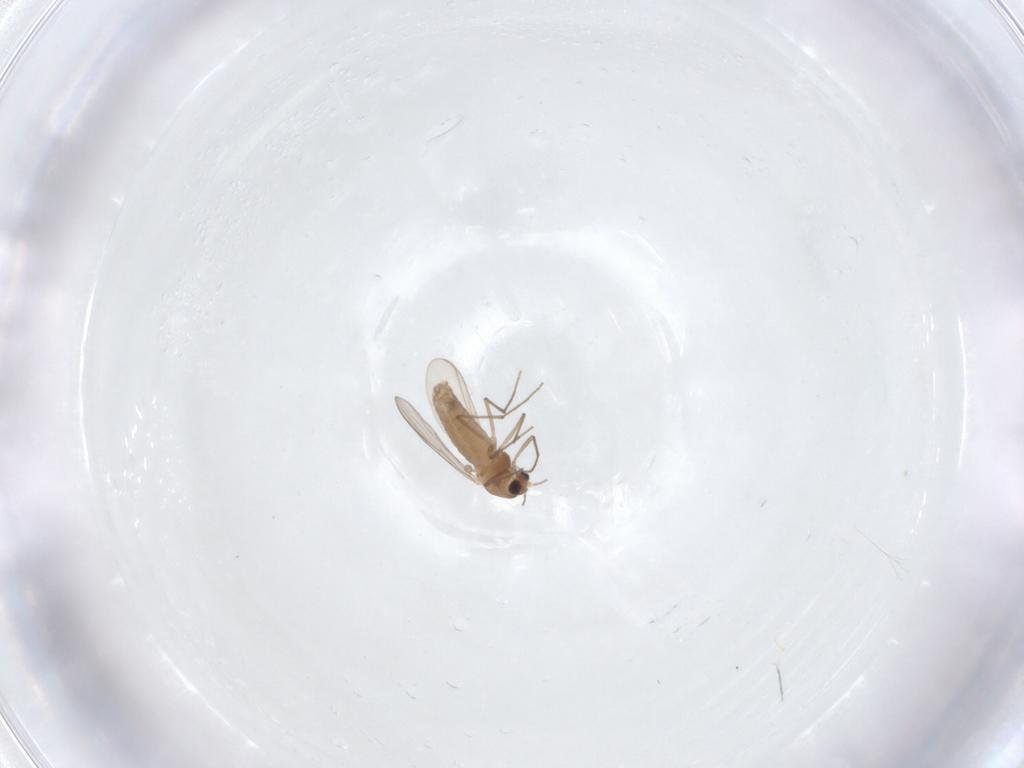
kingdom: Animalia
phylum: Arthropoda
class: Insecta
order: Diptera
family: Chironomidae
